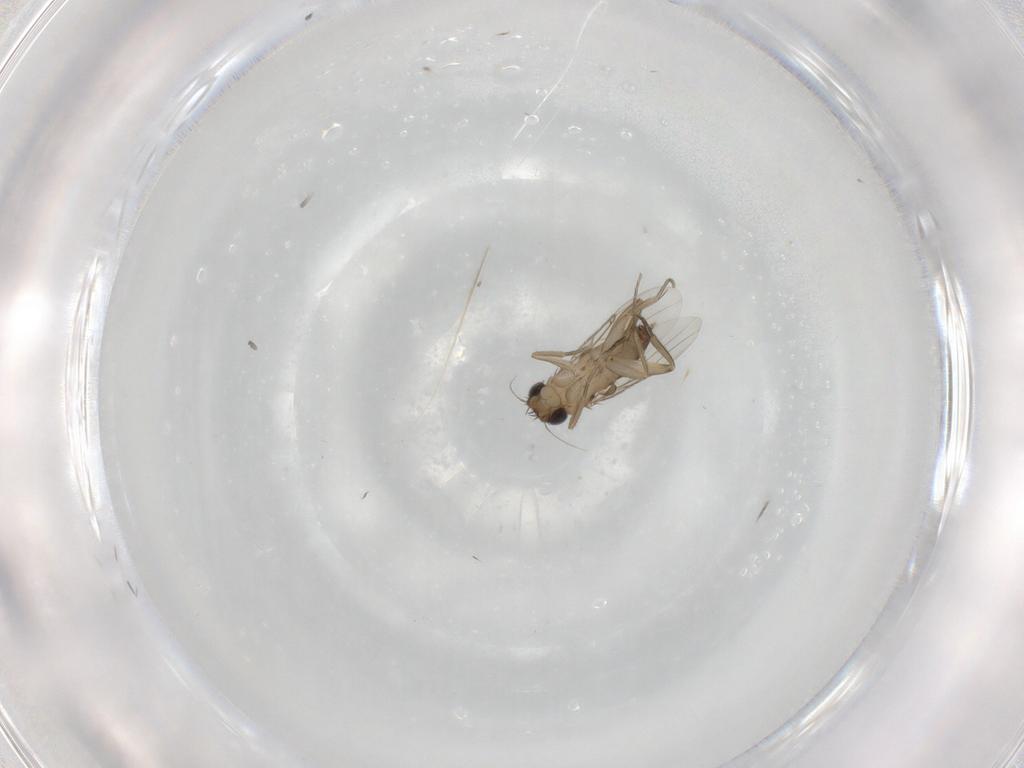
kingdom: Animalia
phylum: Arthropoda
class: Insecta
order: Diptera
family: Phoridae
